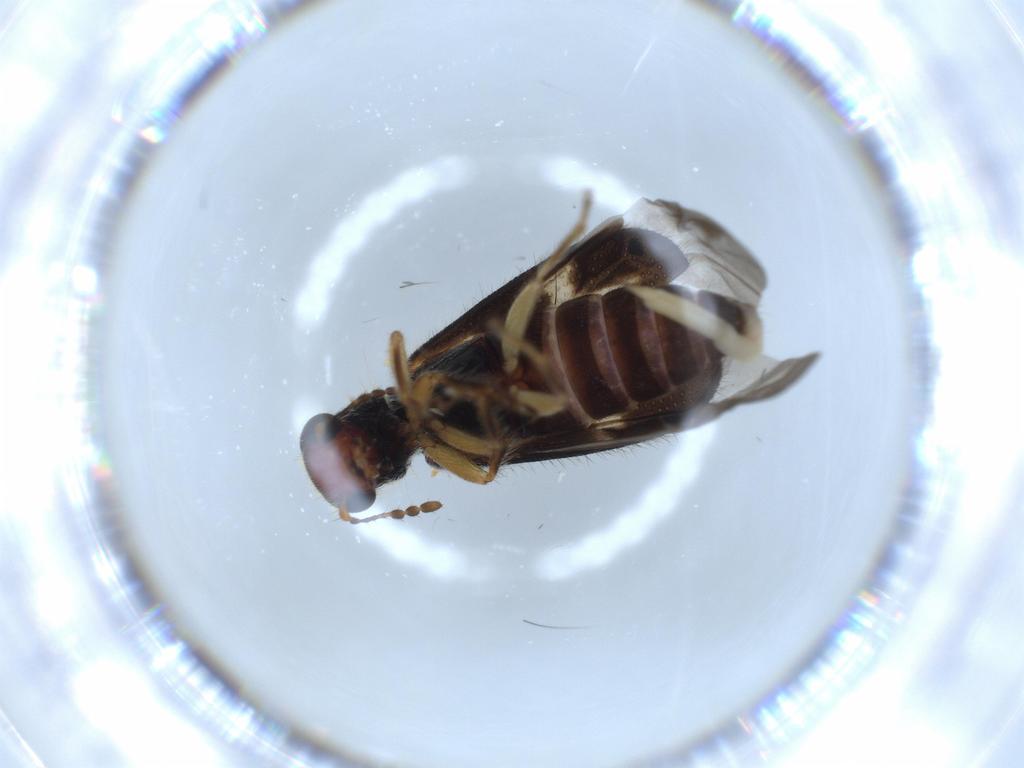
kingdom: Animalia
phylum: Arthropoda
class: Insecta
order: Coleoptera
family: Cleridae
